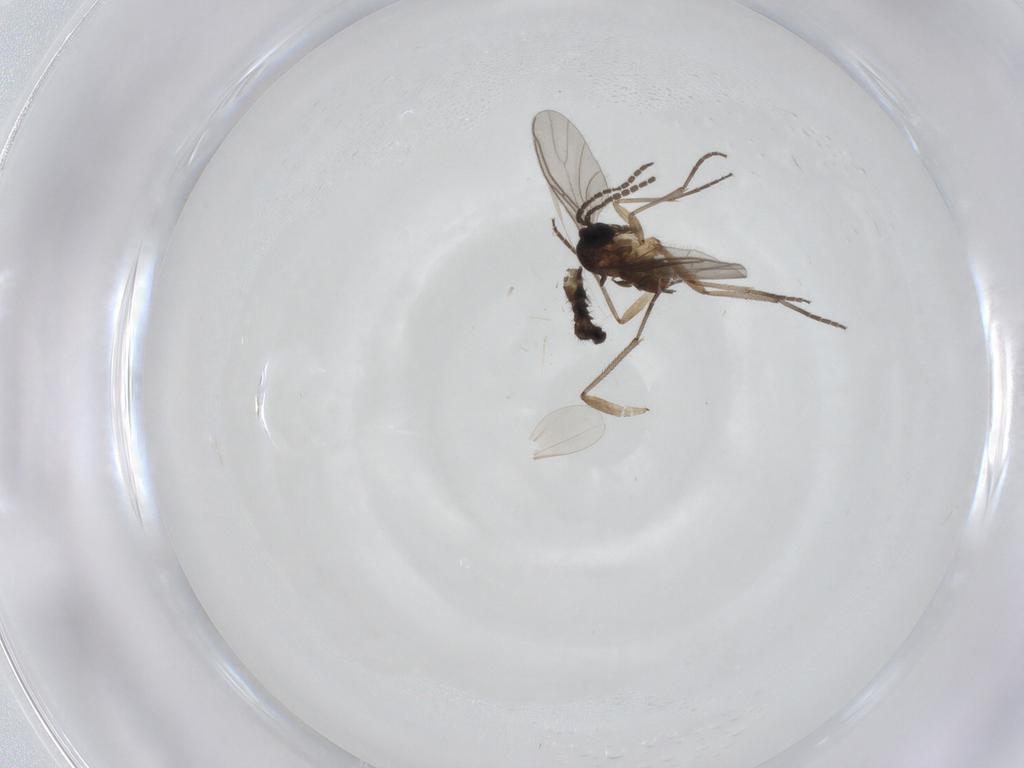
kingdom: Animalia
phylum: Arthropoda
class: Insecta
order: Diptera
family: Sciaridae
